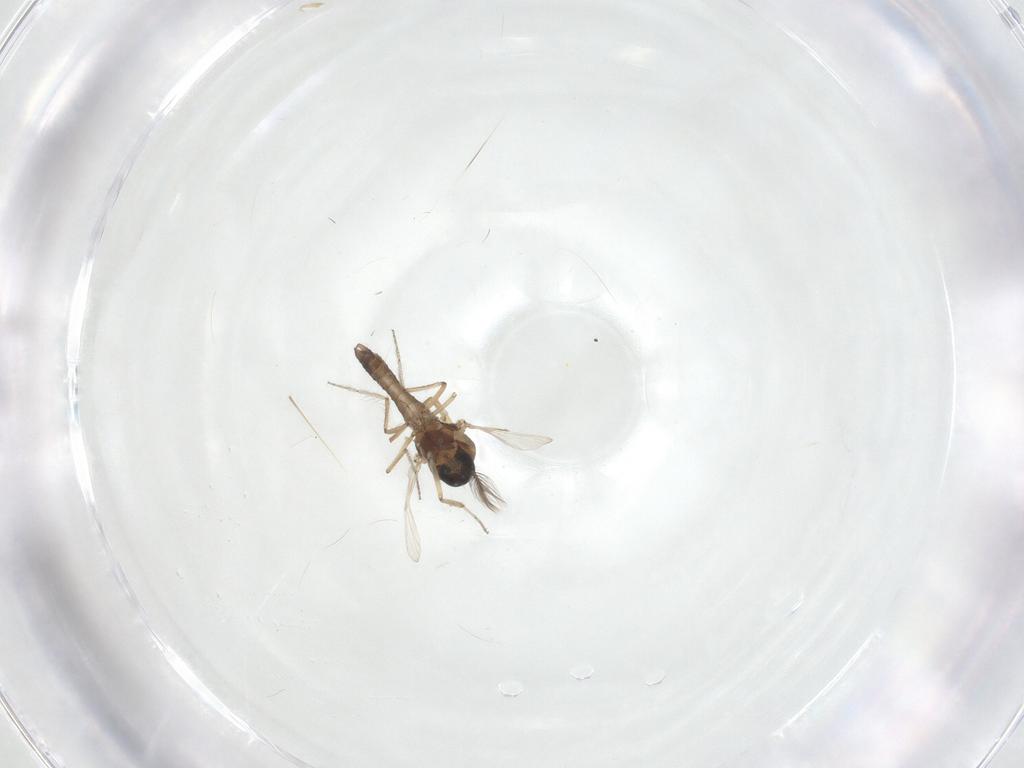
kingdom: Animalia
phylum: Arthropoda
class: Insecta
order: Diptera
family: Ceratopogonidae
